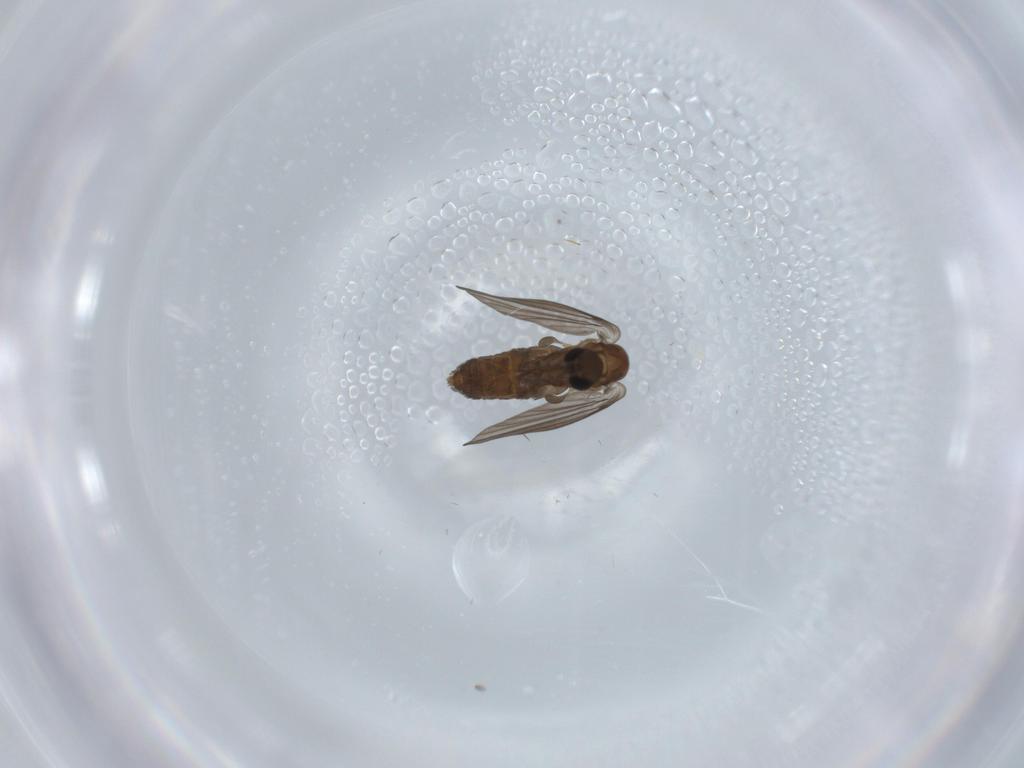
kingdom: Animalia
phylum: Arthropoda
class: Insecta
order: Diptera
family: Psychodidae
